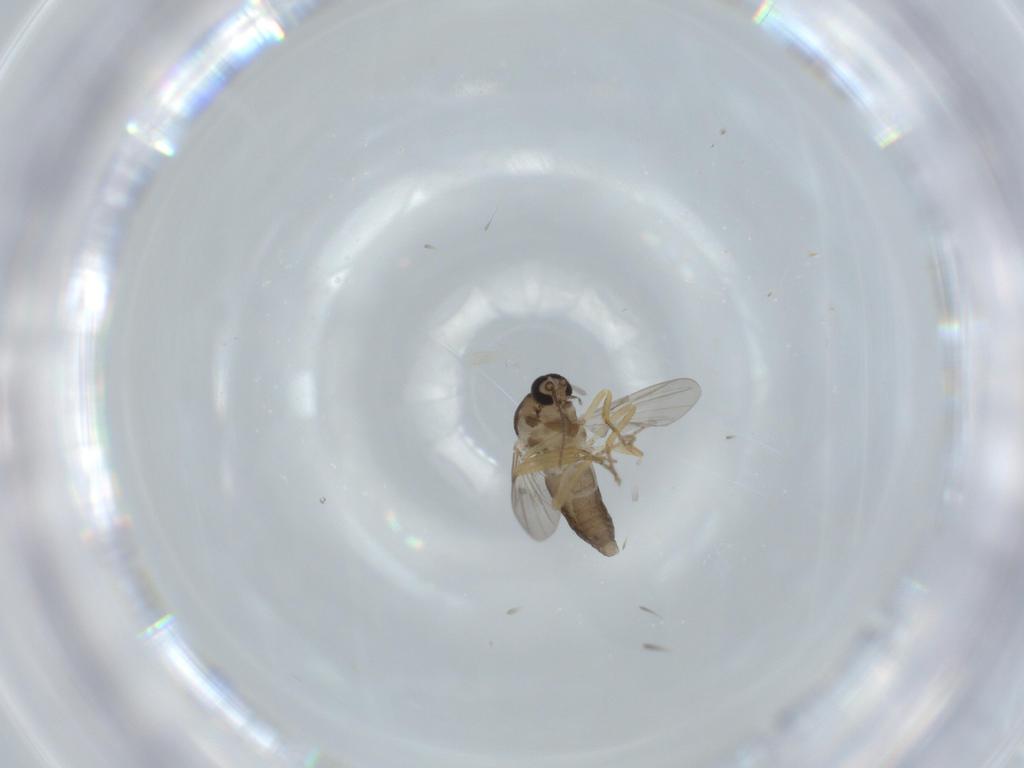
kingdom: Animalia
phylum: Arthropoda
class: Insecta
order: Diptera
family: Ceratopogonidae
